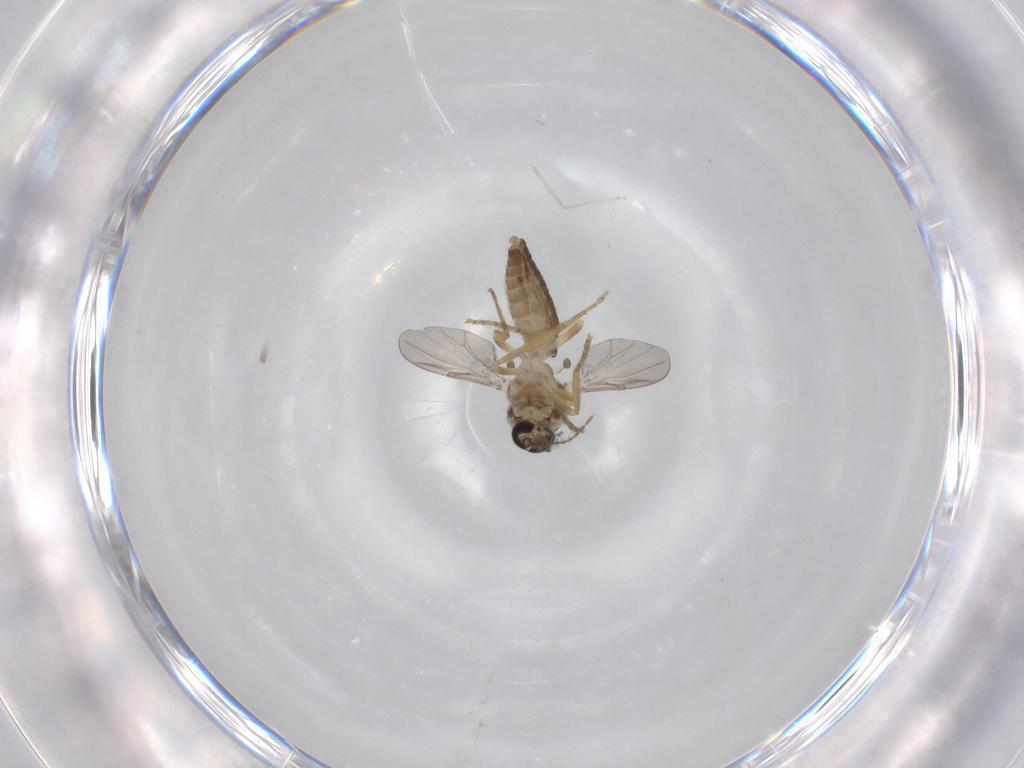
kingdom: Animalia
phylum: Arthropoda
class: Insecta
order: Diptera
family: Ceratopogonidae
